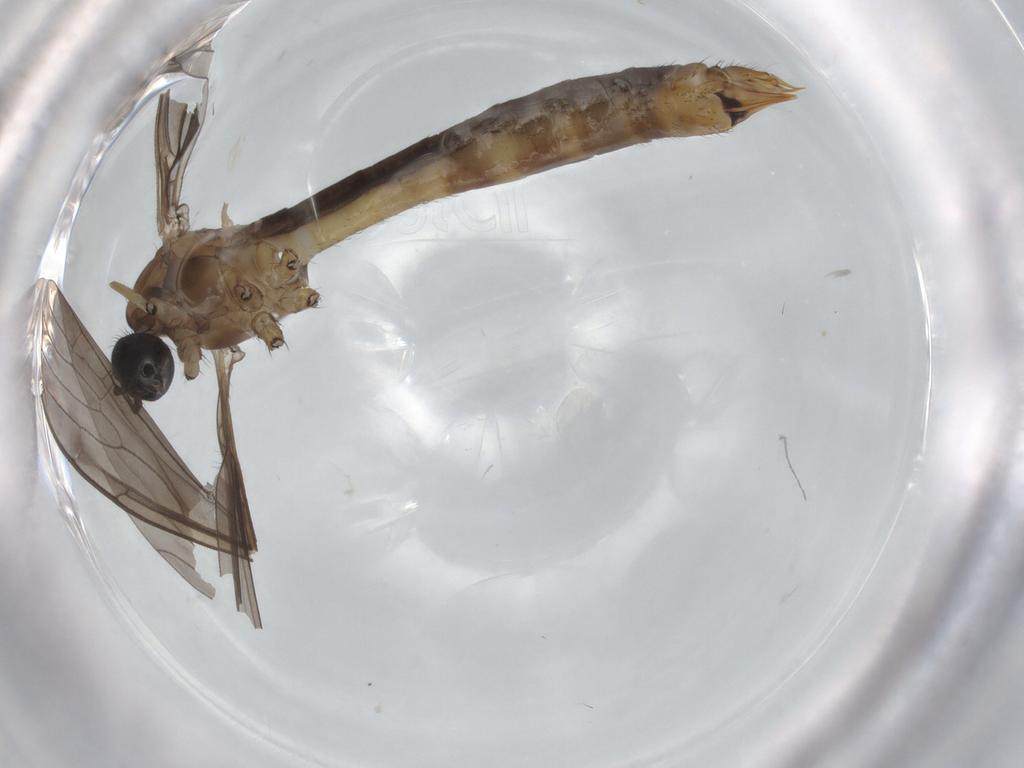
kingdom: Animalia
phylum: Arthropoda
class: Insecta
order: Diptera
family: Limoniidae
